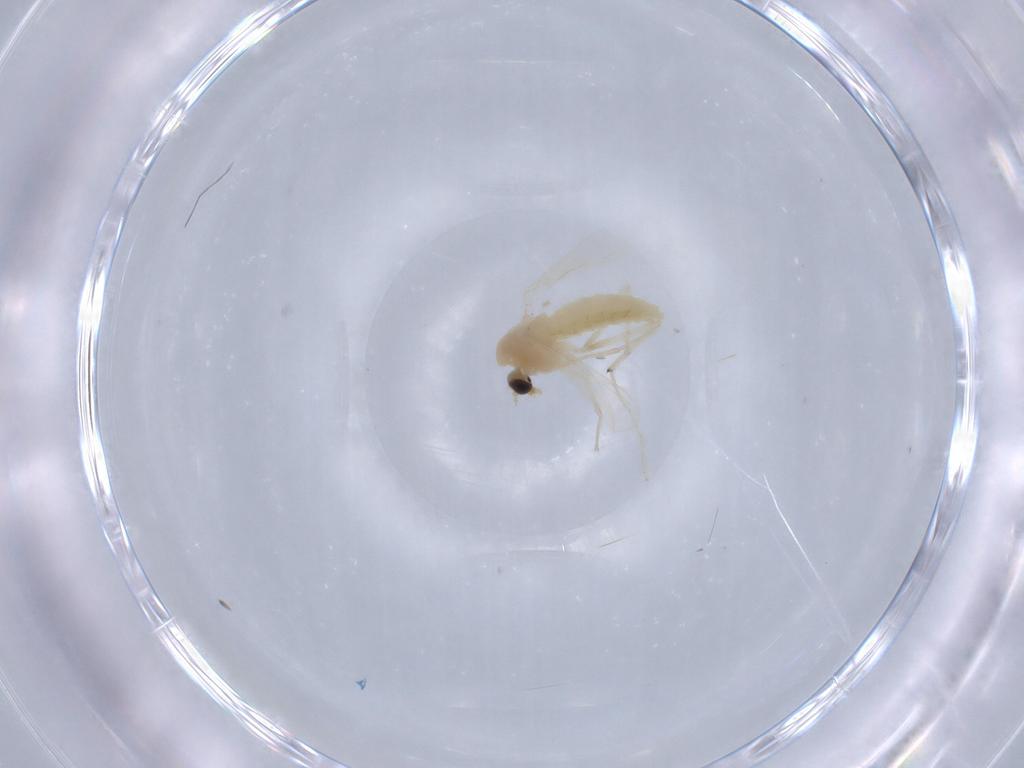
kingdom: Animalia
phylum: Arthropoda
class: Insecta
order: Diptera
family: Chironomidae
